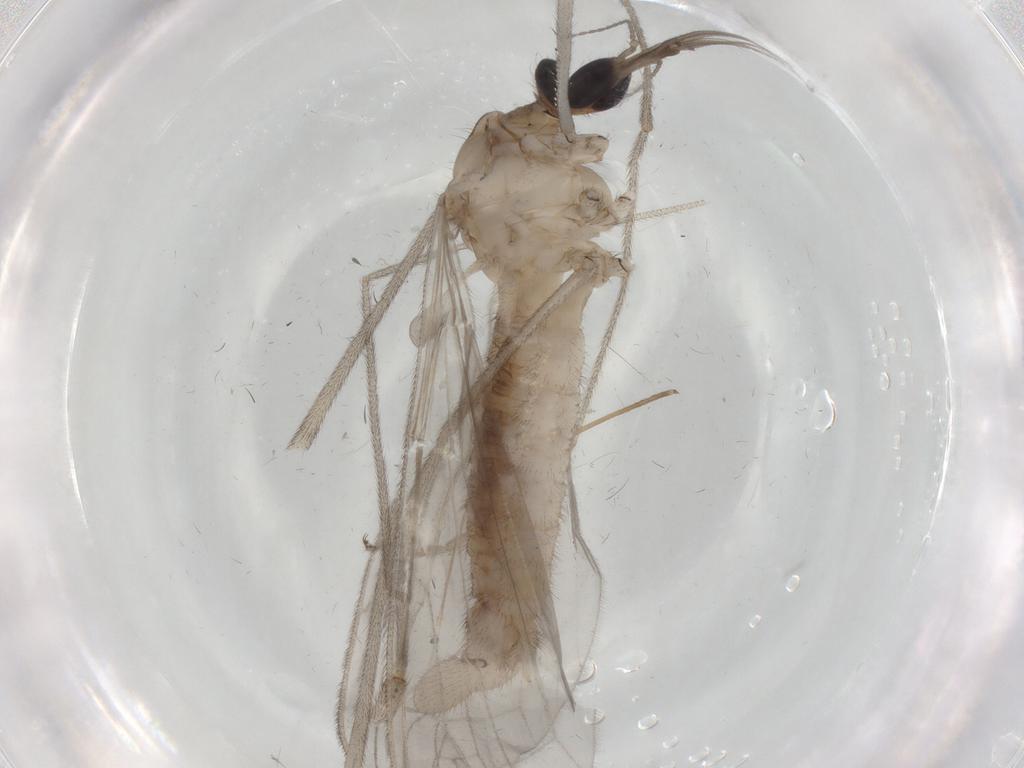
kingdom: Animalia
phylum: Arthropoda
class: Insecta
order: Diptera
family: Limoniidae
